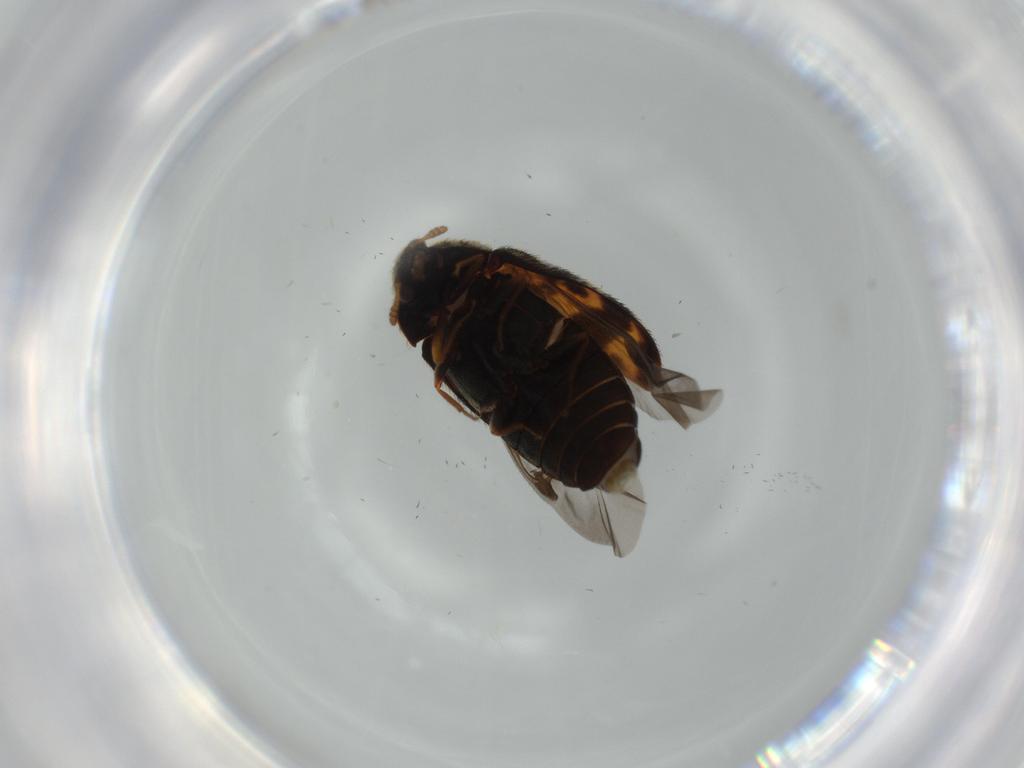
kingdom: Animalia
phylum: Arthropoda
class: Insecta
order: Coleoptera
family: Dermestidae
